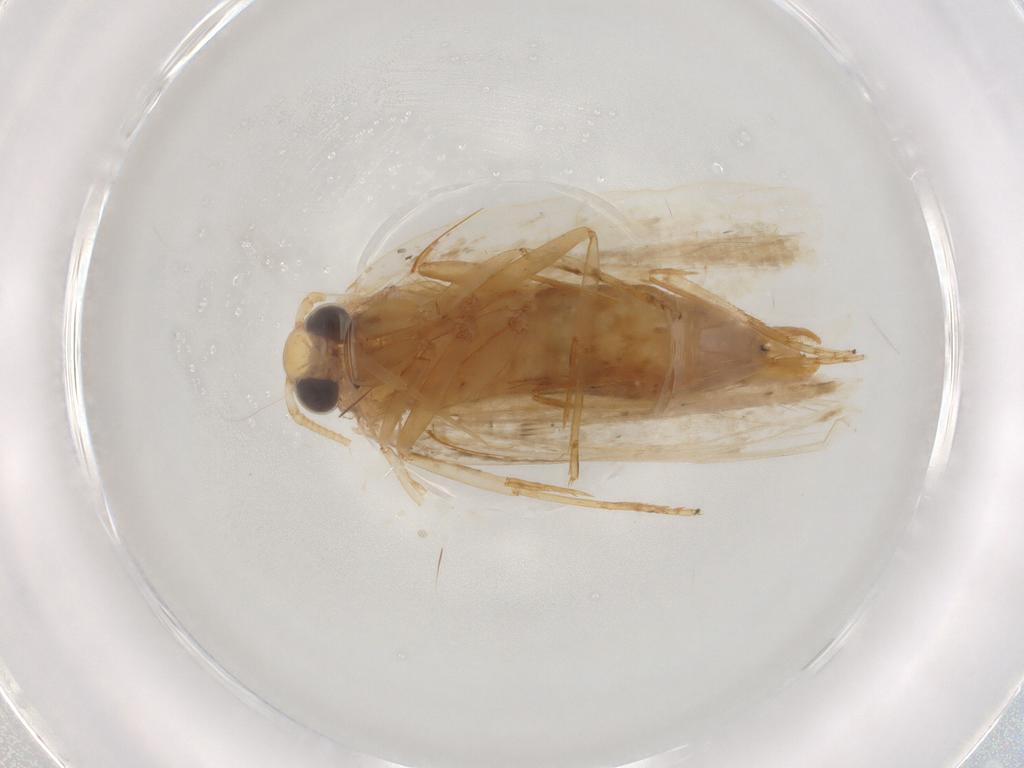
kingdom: Animalia
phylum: Arthropoda
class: Insecta
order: Lepidoptera
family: Depressariidae
